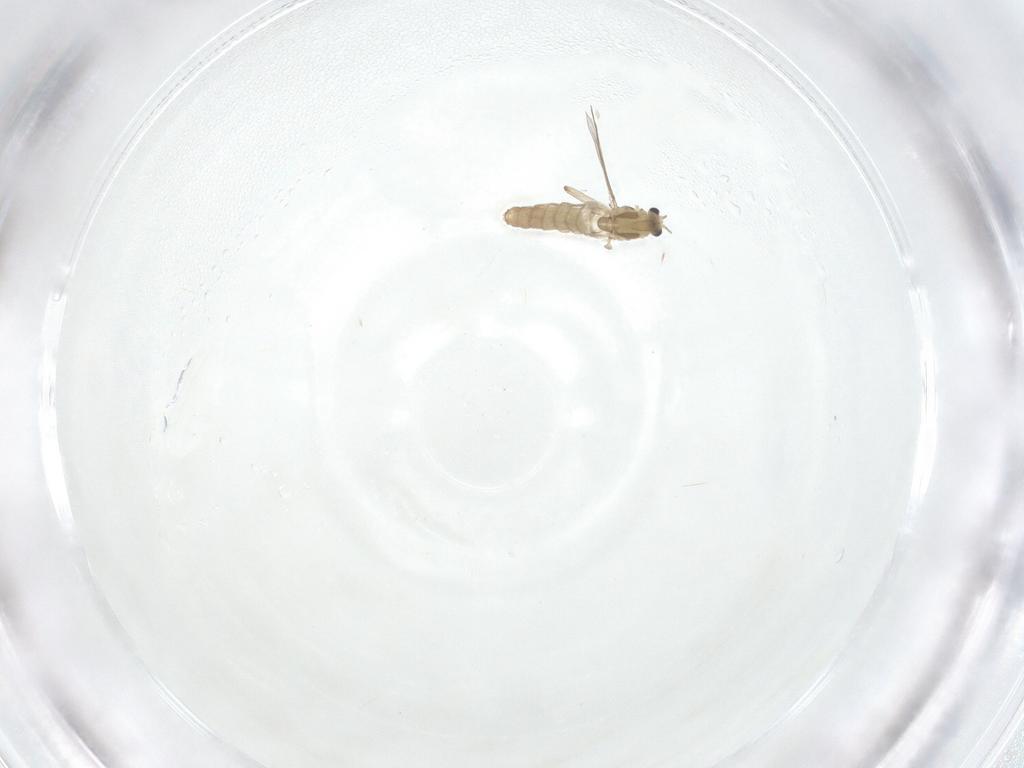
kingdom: Animalia
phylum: Arthropoda
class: Insecta
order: Diptera
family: Chironomidae
